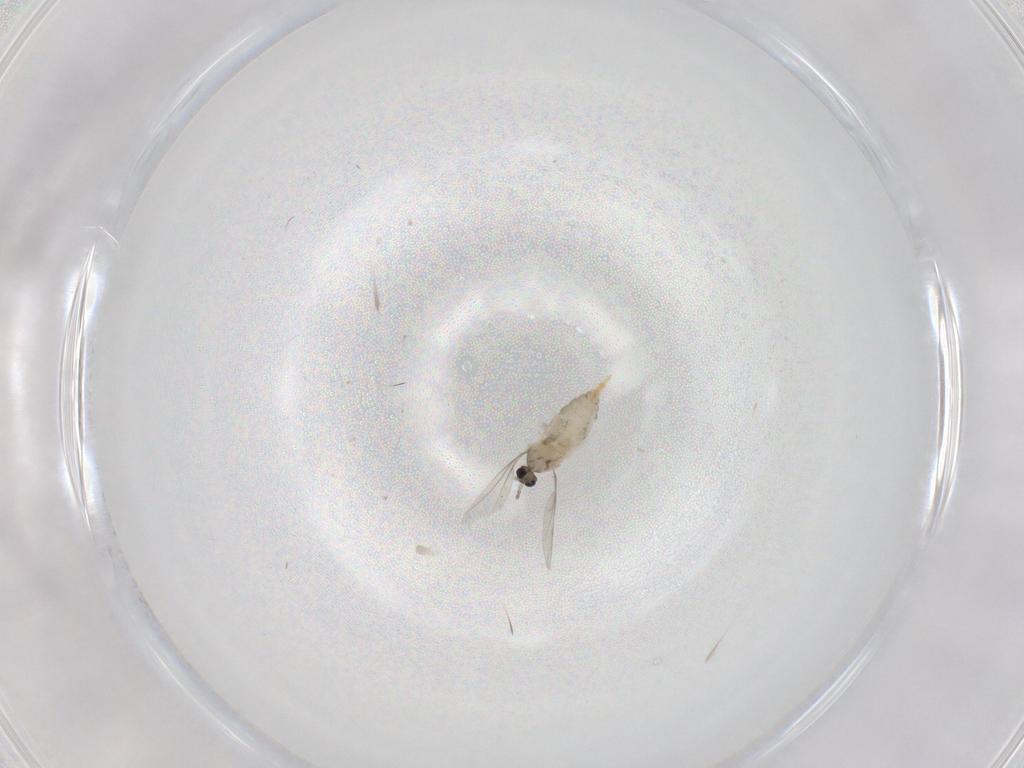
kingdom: Animalia
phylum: Arthropoda
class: Insecta
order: Diptera
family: Cecidomyiidae
